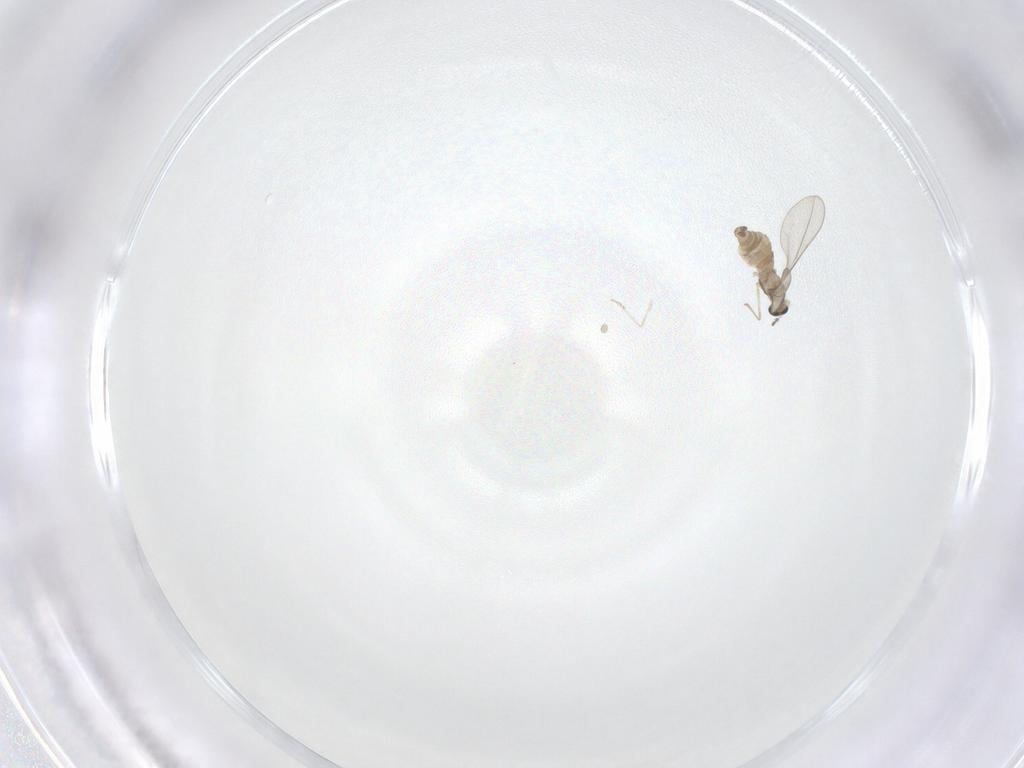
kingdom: Animalia
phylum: Arthropoda
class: Insecta
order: Diptera
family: Cecidomyiidae
